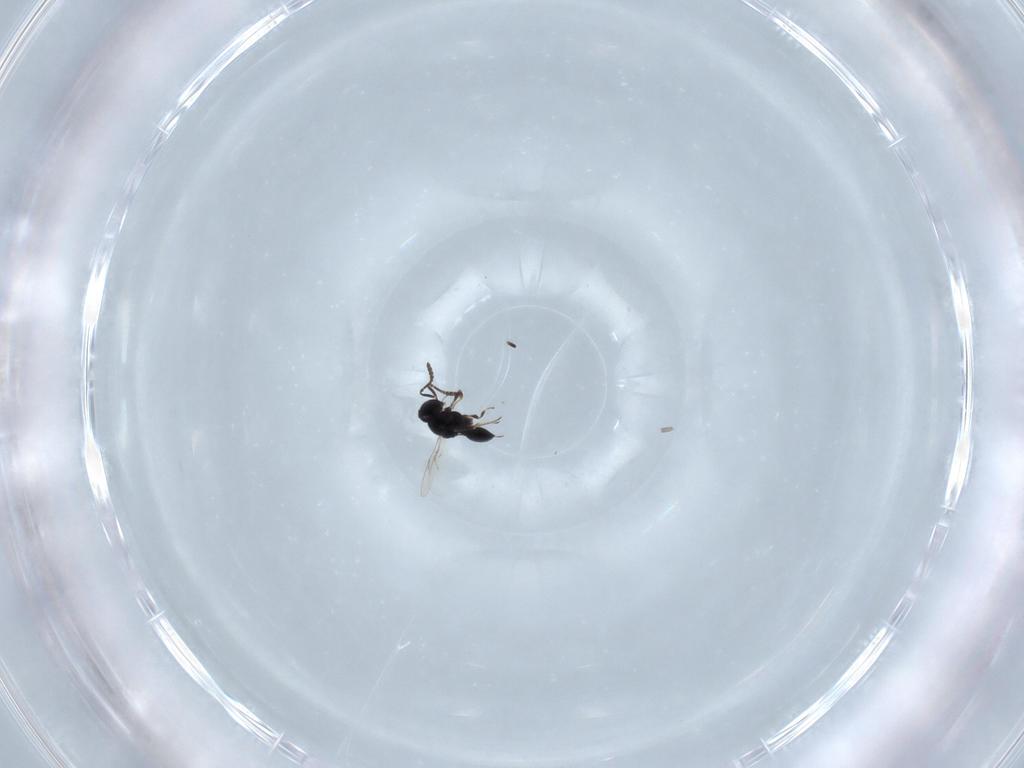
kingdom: Animalia
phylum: Arthropoda
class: Insecta
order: Hymenoptera
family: Scelionidae
